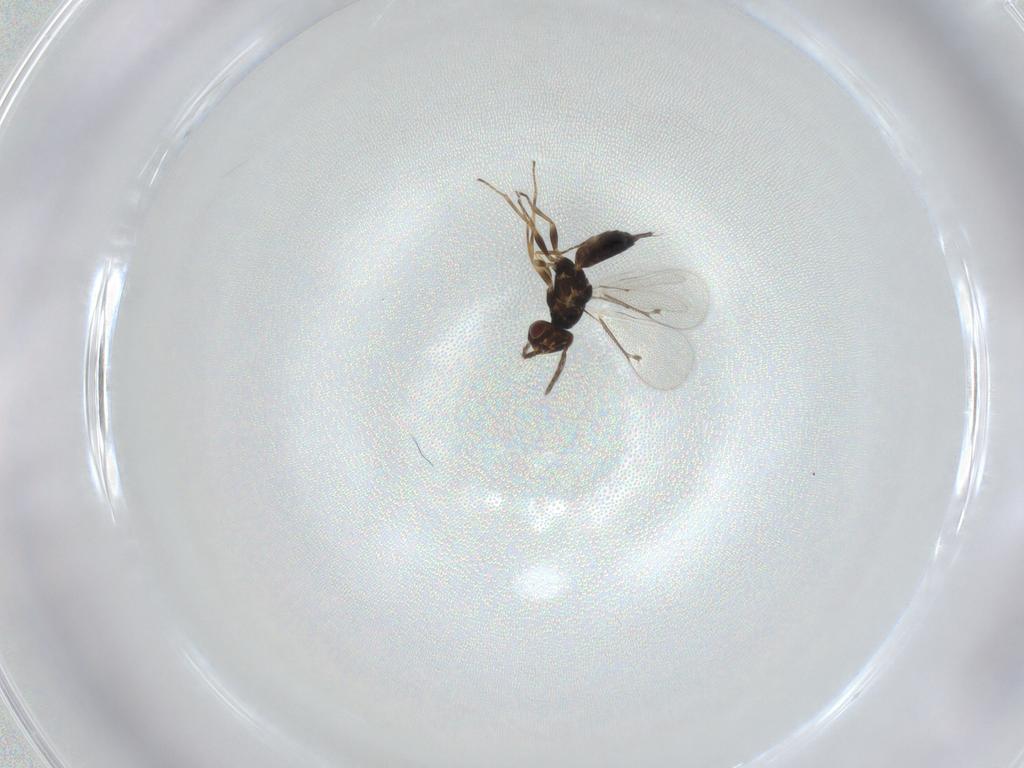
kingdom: Animalia
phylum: Arthropoda
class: Insecta
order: Hymenoptera
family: Eulophidae
